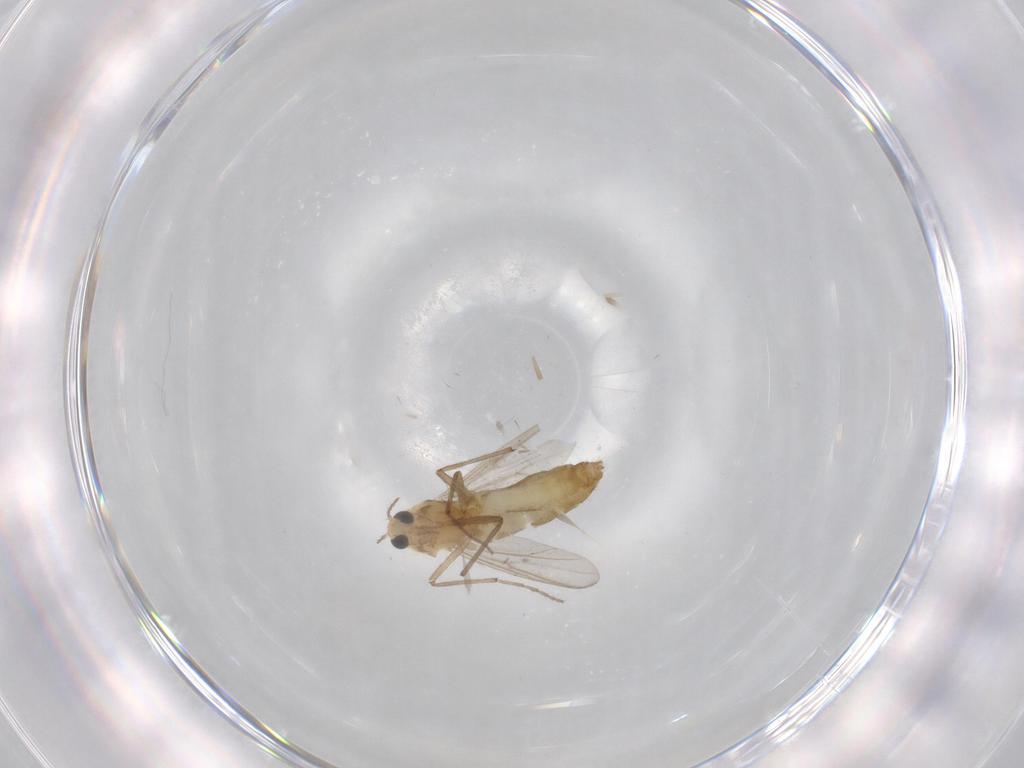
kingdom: Animalia
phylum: Arthropoda
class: Insecta
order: Diptera
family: Chironomidae
